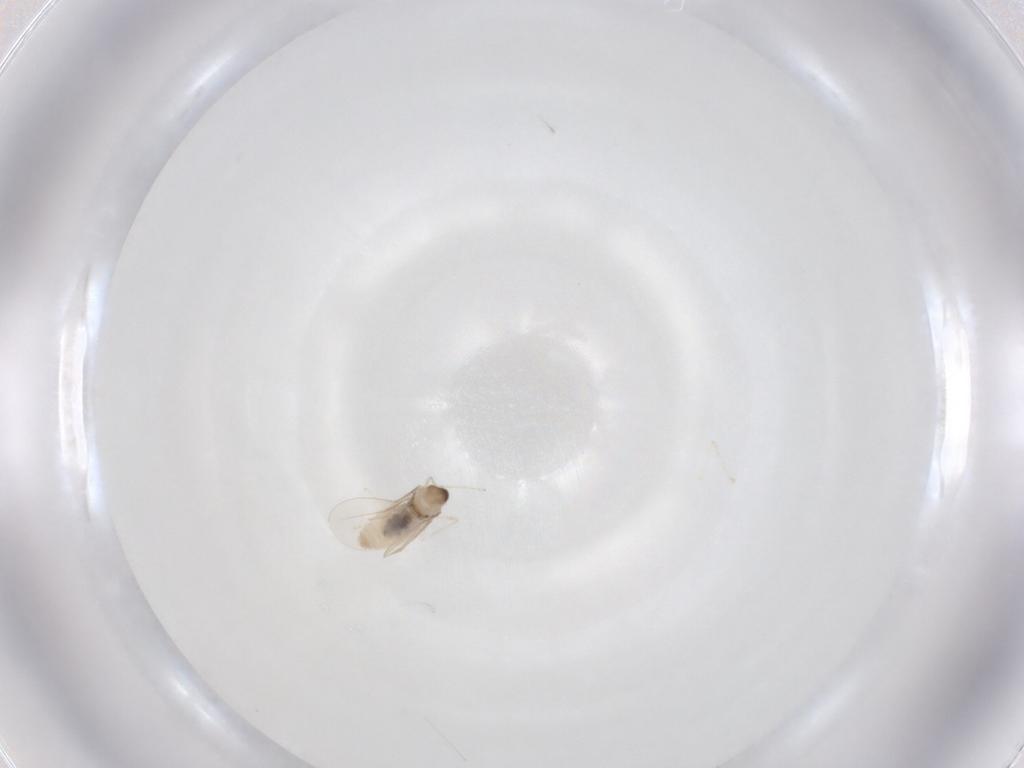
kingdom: Animalia
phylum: Arthropoda
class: Insecta
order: Diptera
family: Cecidomyiidae
